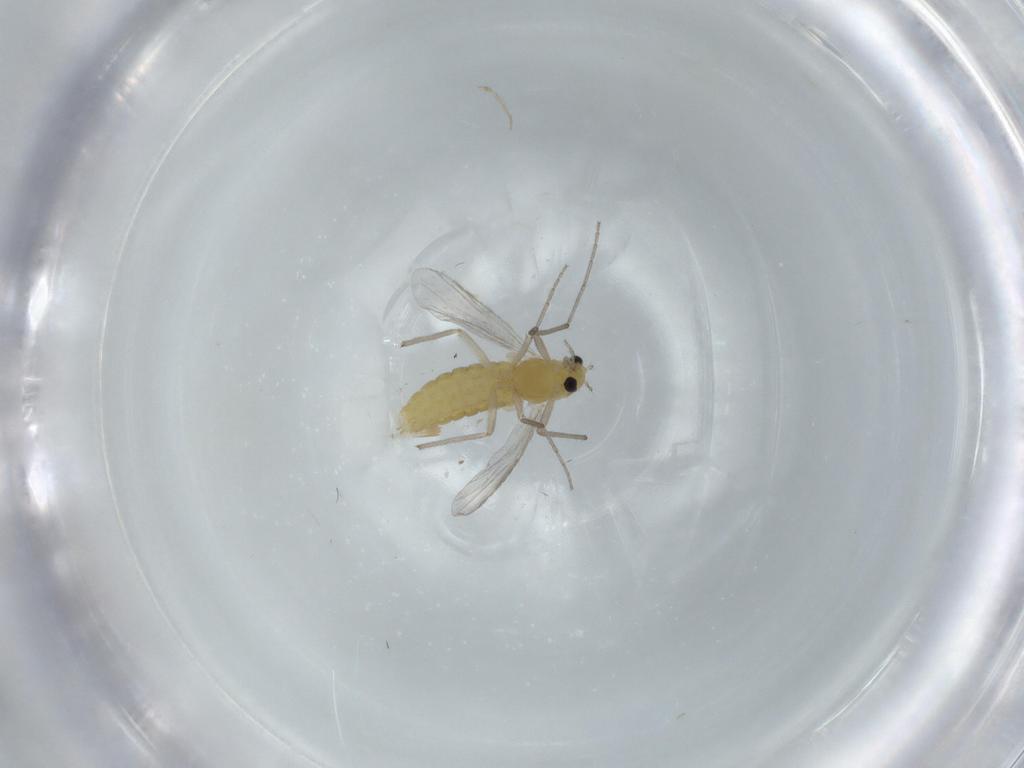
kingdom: Animalia
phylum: Arthropoda
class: Insecta
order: Diptera
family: Chironomidae
